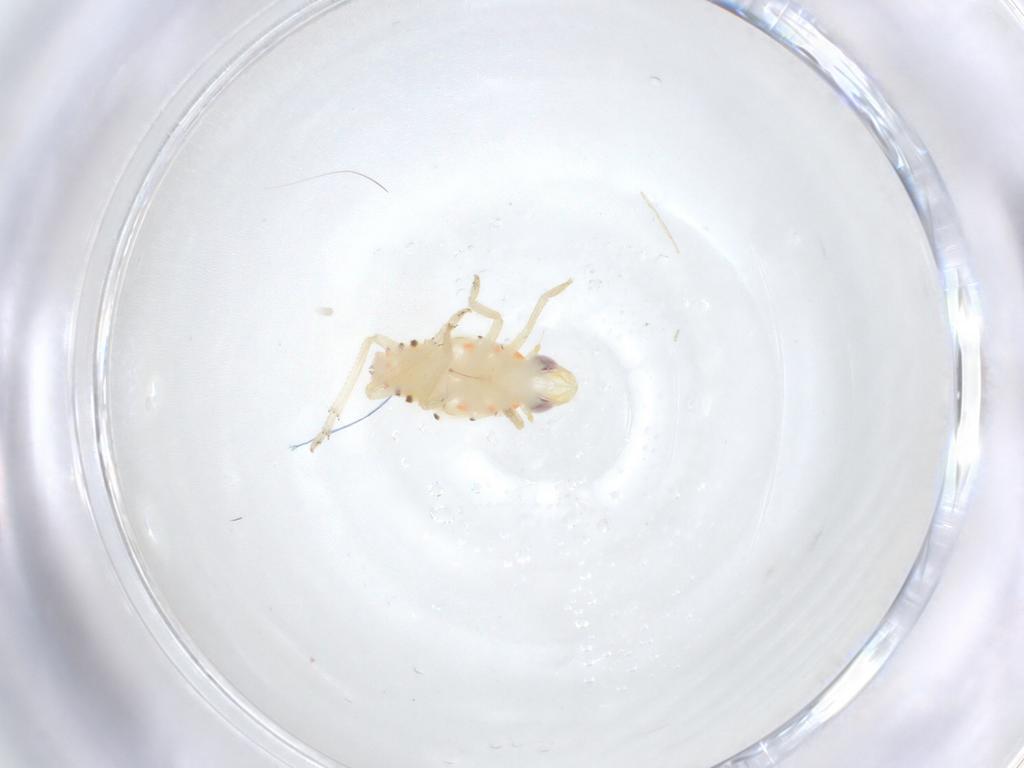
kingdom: Animalia
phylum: Arthropoda
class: Insecta
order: Hemiptera
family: Tropiduchidae
